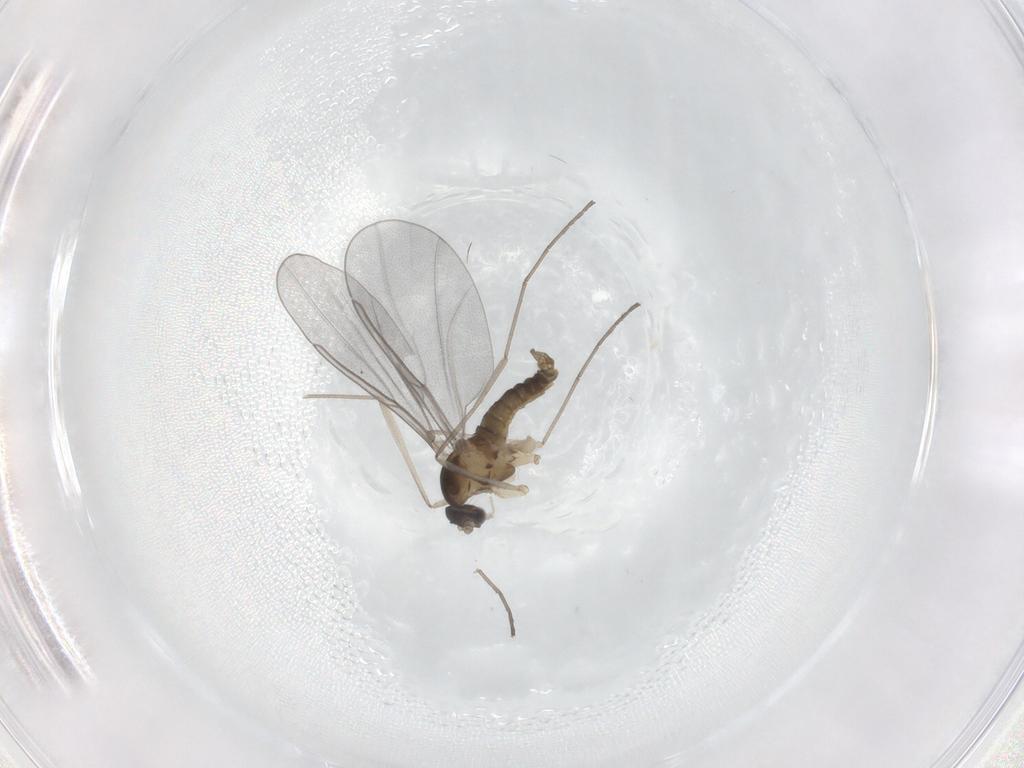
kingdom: Animalia
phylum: Arthropoda
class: Insecta
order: Diptera
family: Cecidomyiidae
